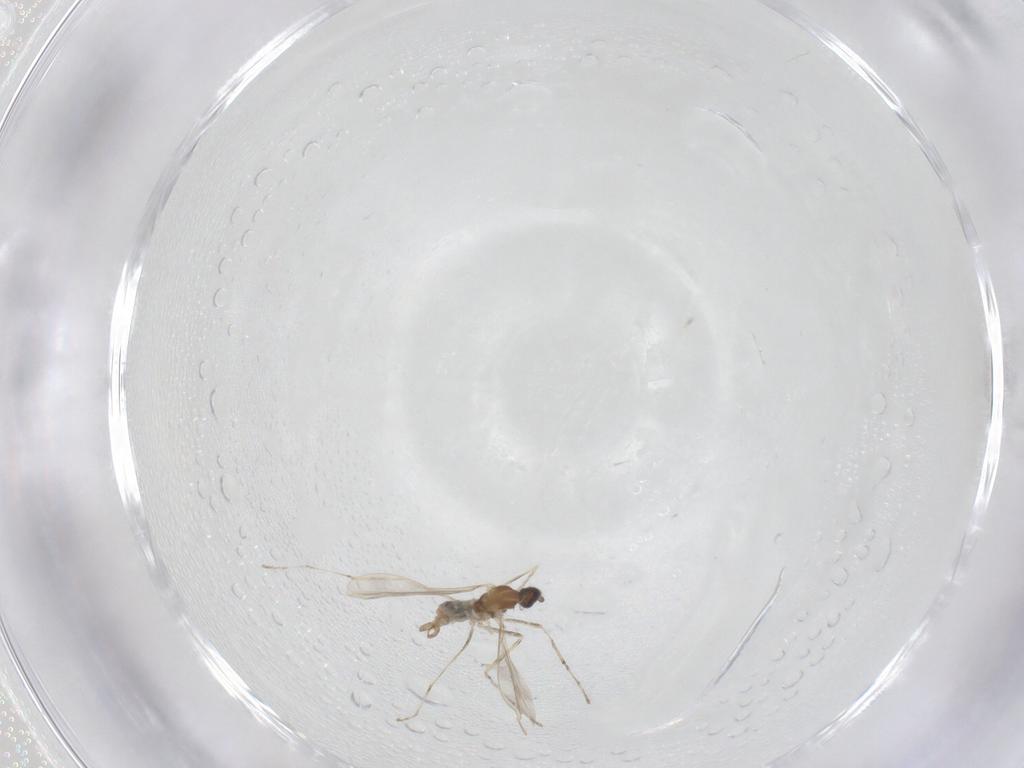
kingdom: Animalia
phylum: Arthropoda
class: Insecta
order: Diptera
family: Cecidomyiidae
